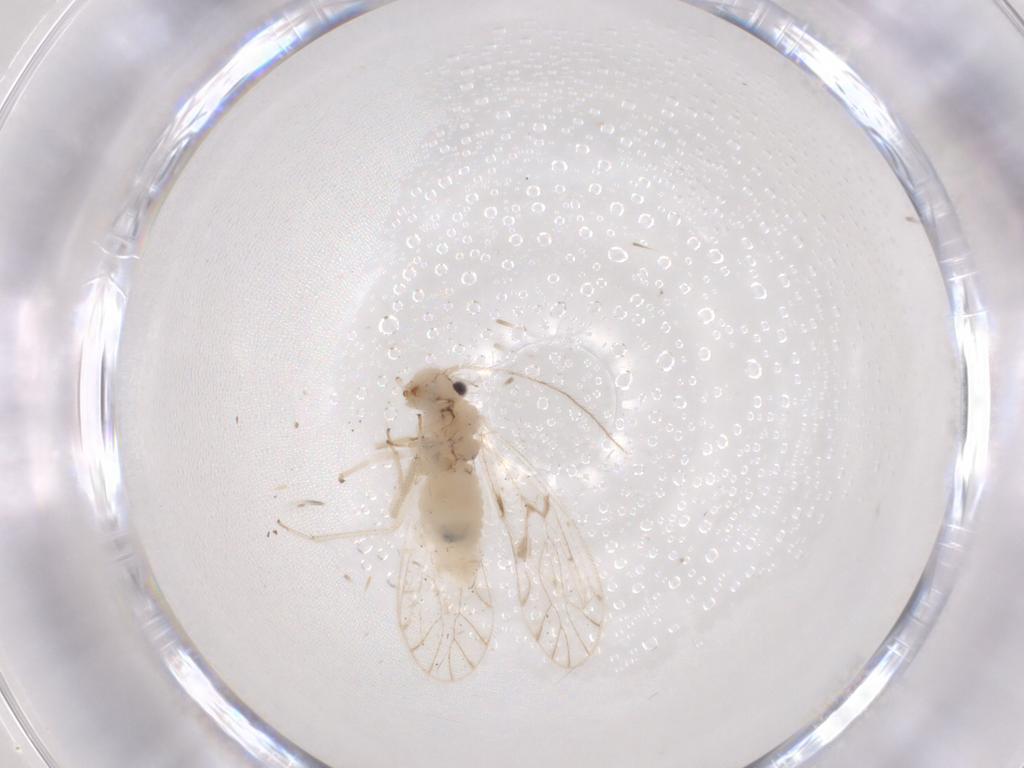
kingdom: Animalia
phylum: Arthropoda
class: Insecta
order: Psocodea
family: Trichopsocidae
